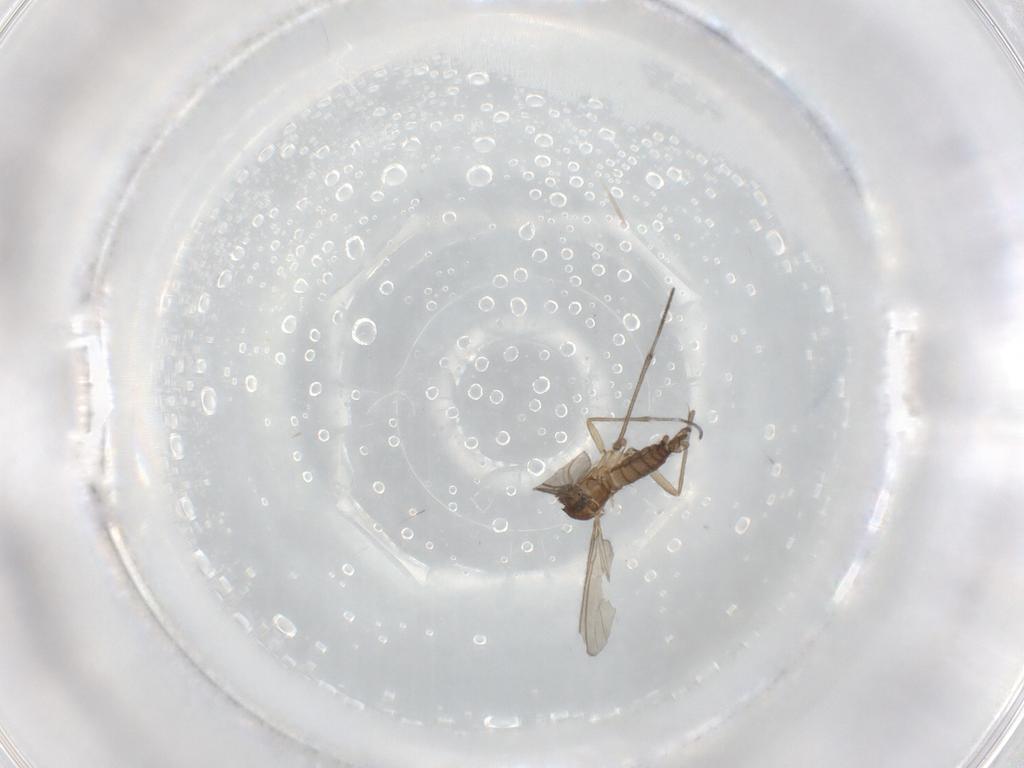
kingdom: Animalia
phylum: Arthropoda
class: Insecta
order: Diptera
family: Sciaridae
